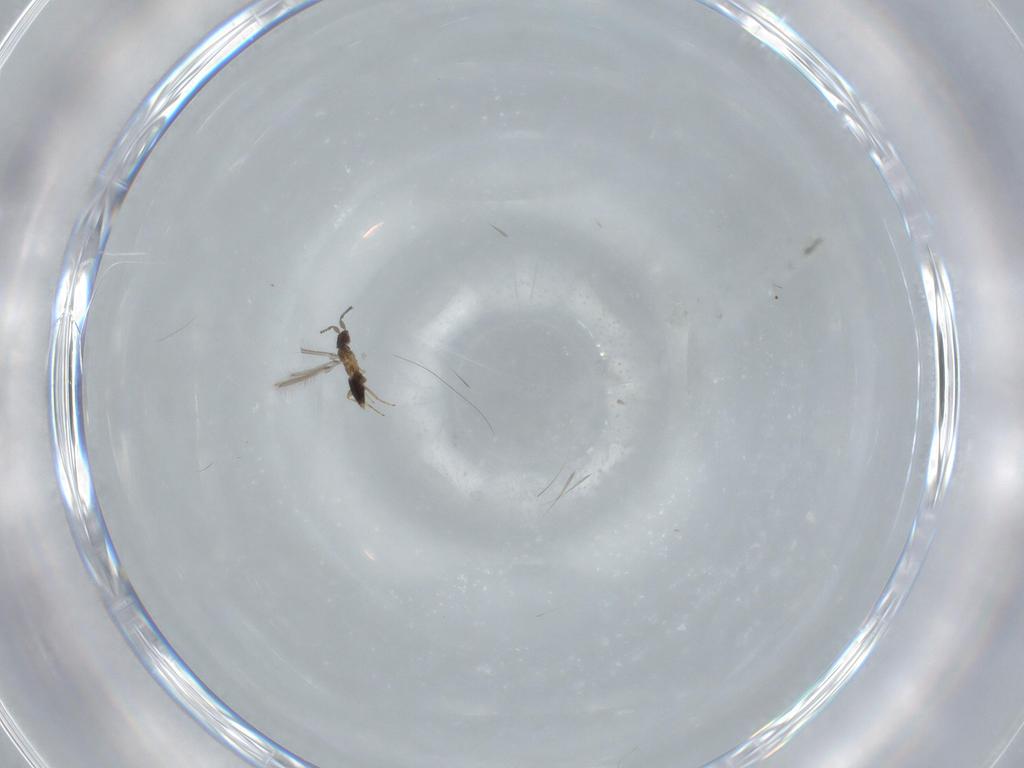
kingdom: Animalia
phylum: Arthropoda
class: Insecta
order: Hymenoptera
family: Mymaridae
